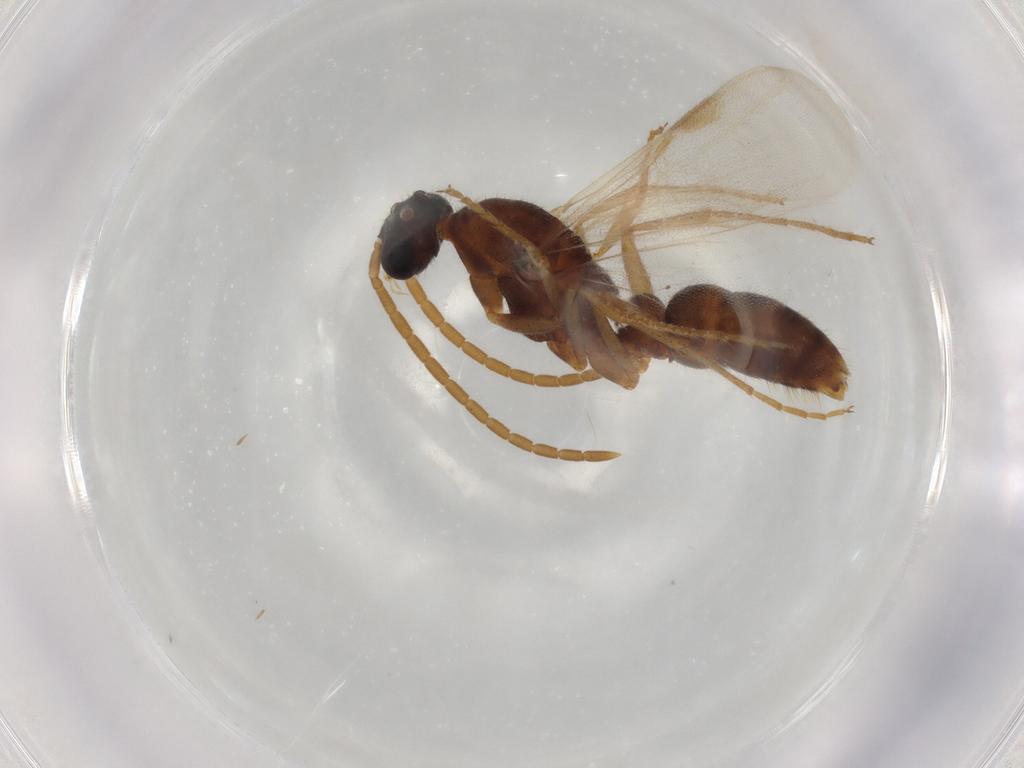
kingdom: Animalia
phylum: Arthropoda
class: Insecta
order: Hymenoptera
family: Formicidae
